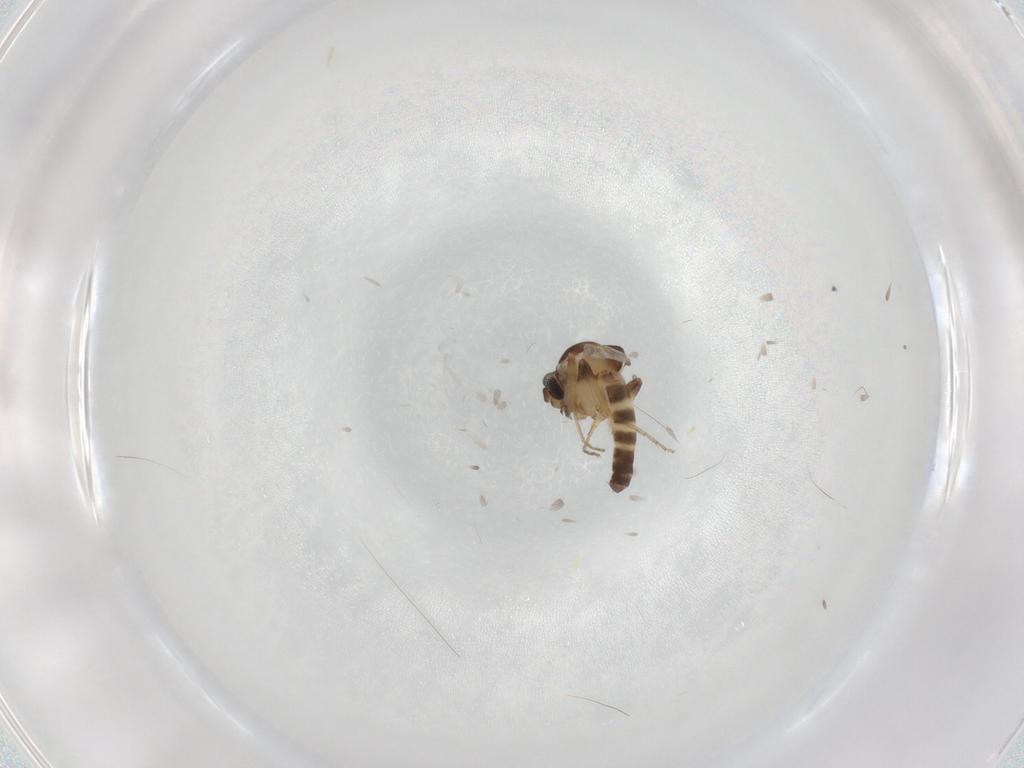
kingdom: Animalia
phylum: Arthropoda
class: Insecta
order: Diptera
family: Ceratopogonidae
